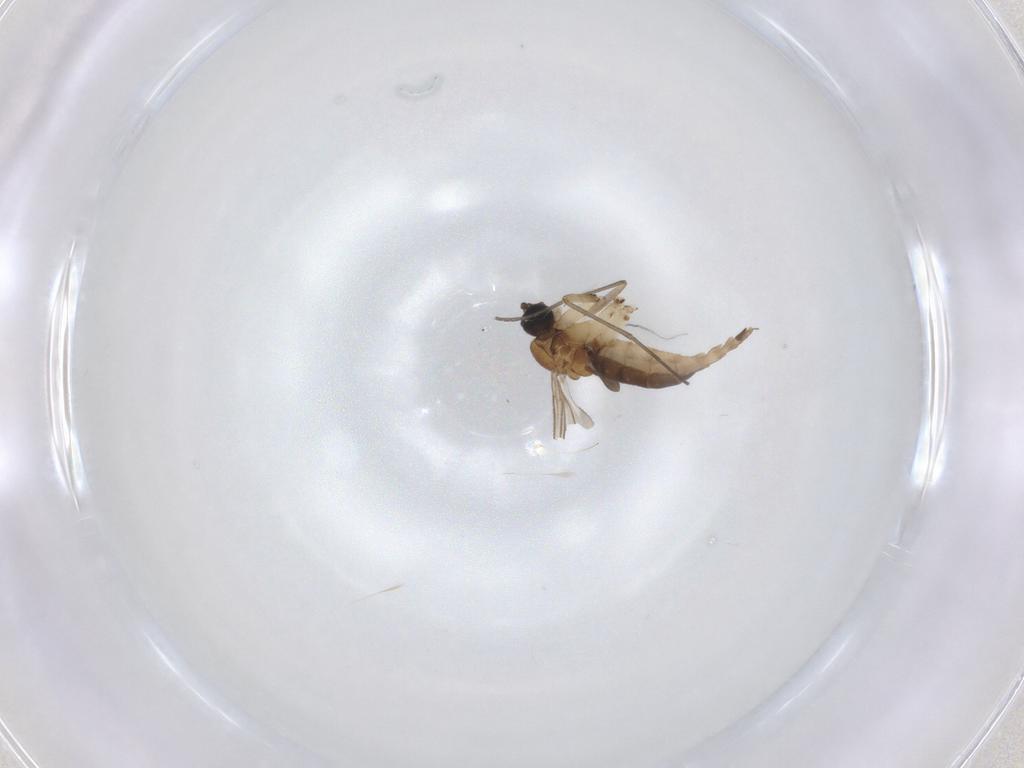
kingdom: Animalia
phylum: Arthropoda
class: Insecta
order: Diptera
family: Sciaridae
